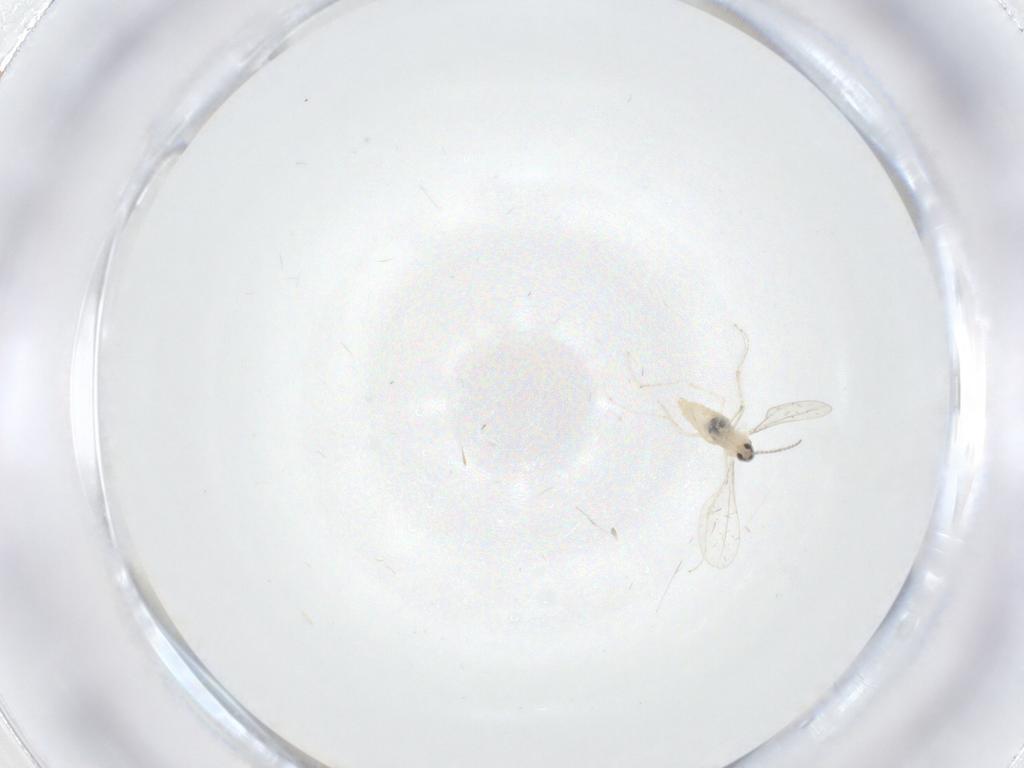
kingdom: Animalia
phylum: Arthropoda
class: Insecta
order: Diptera
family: Cecidomyiidae
